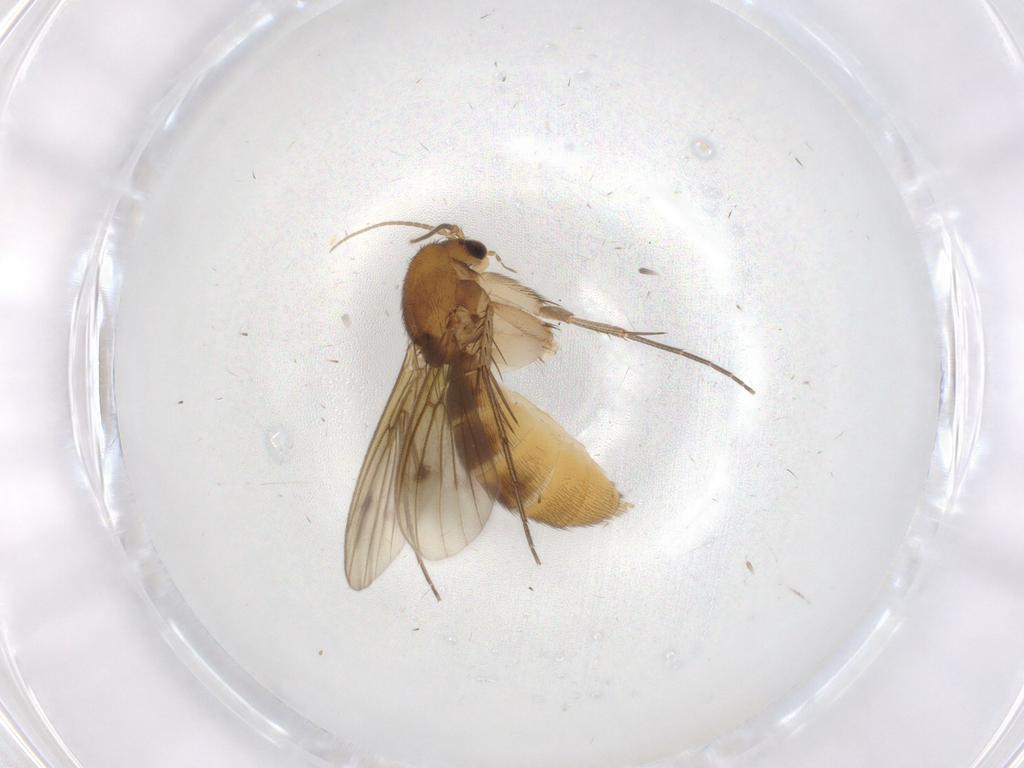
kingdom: Animalia
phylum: Arthropoda
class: Insecta
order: Diptera
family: Mycetophilidae
